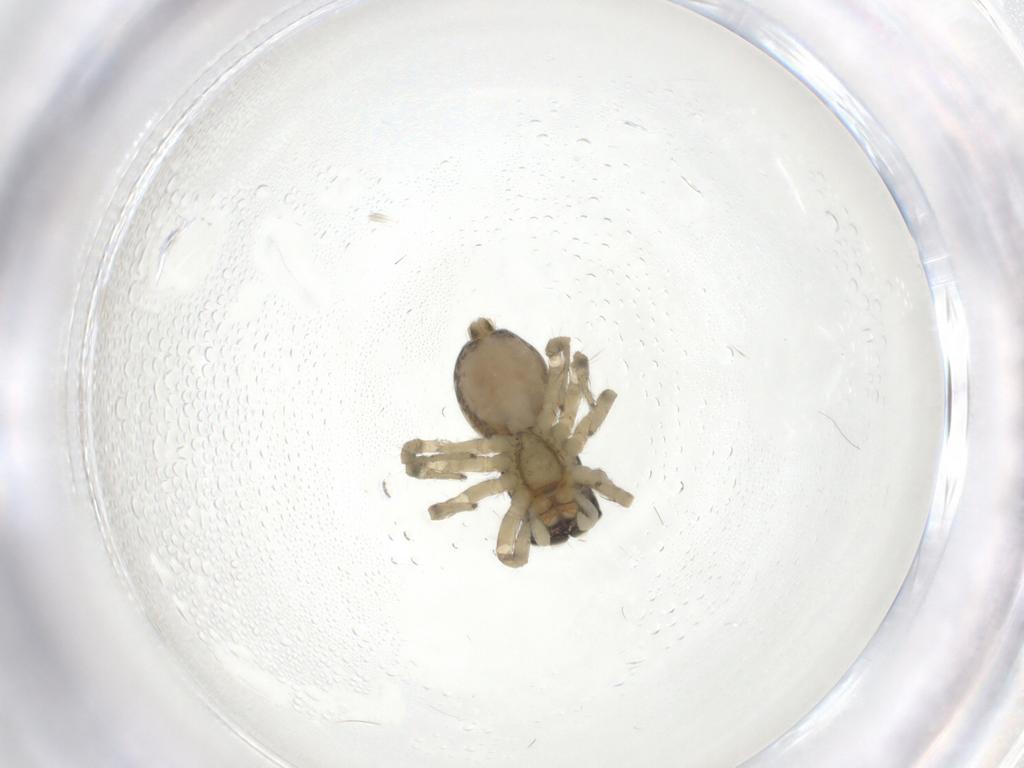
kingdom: Animalia
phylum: Arthropoda
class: Arachnida
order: Araneae
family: Salticidae
